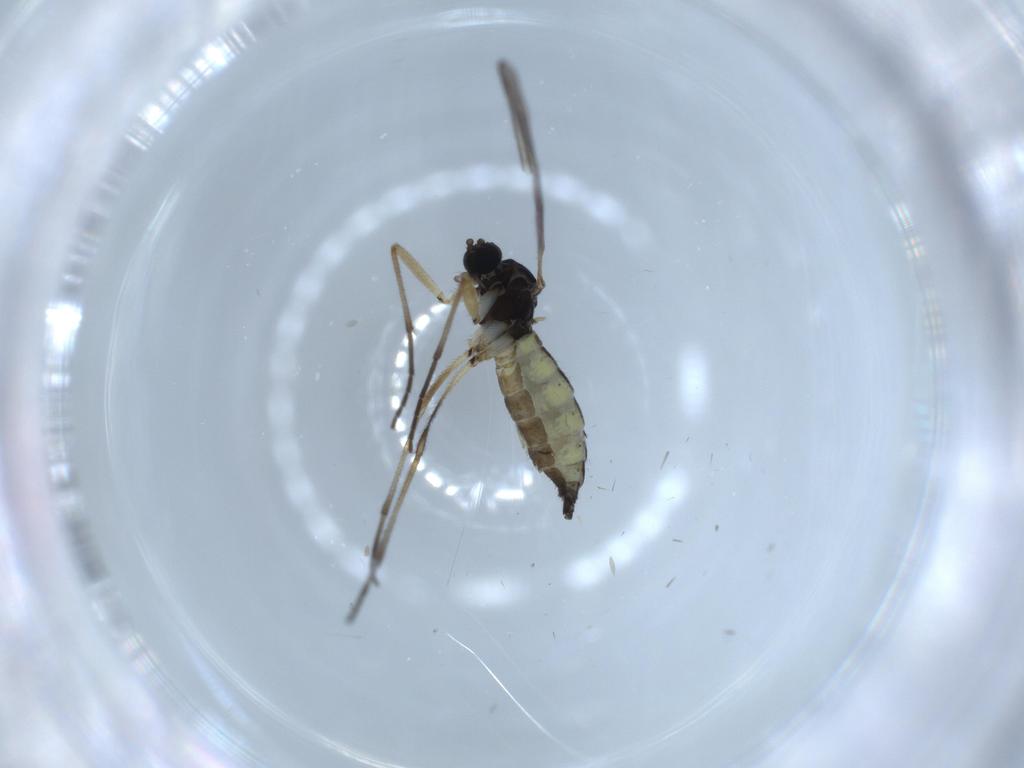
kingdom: Animalia
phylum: Arthropoda
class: Insecta
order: Diptera
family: Sciaridae
